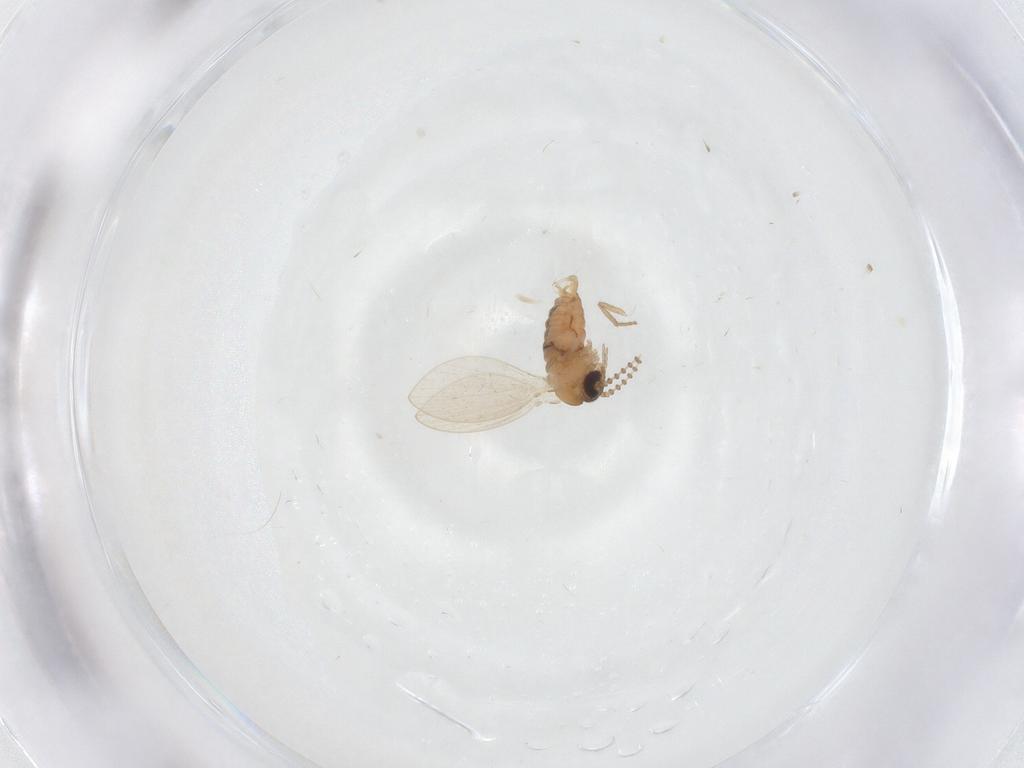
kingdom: Animalia
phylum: Arthropoda
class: Insecta
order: Diptera
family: Psychodidae
